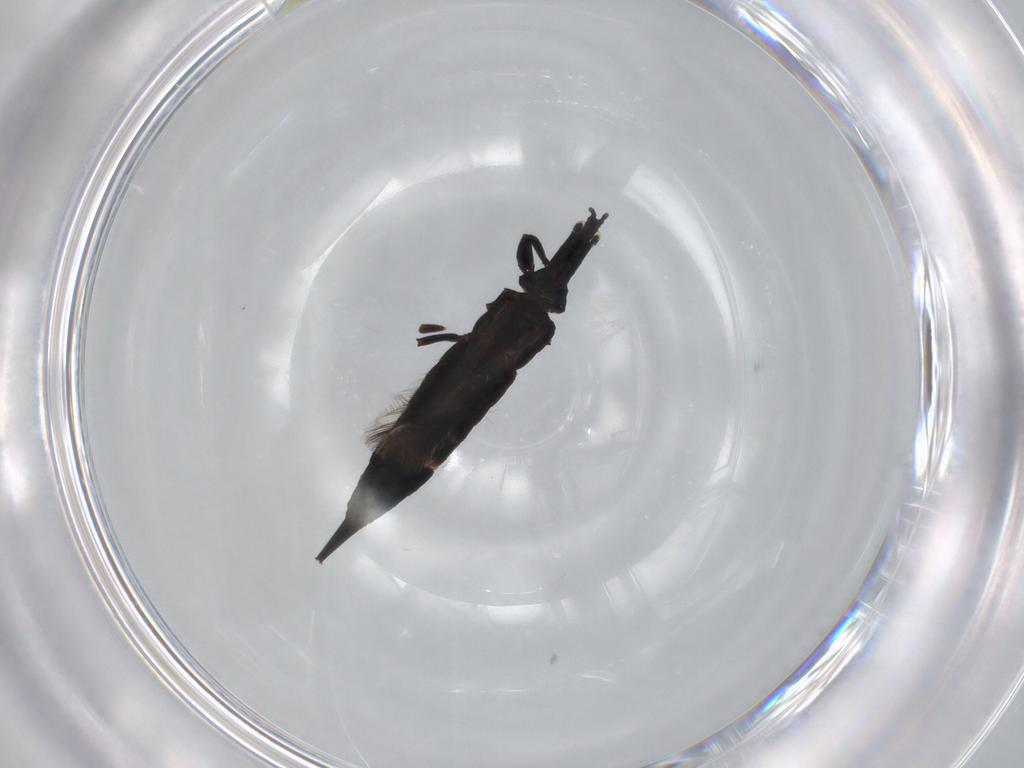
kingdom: Animalia
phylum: Arthropoda
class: Insecta
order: Thysanoptera
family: Phlaeothripidae
